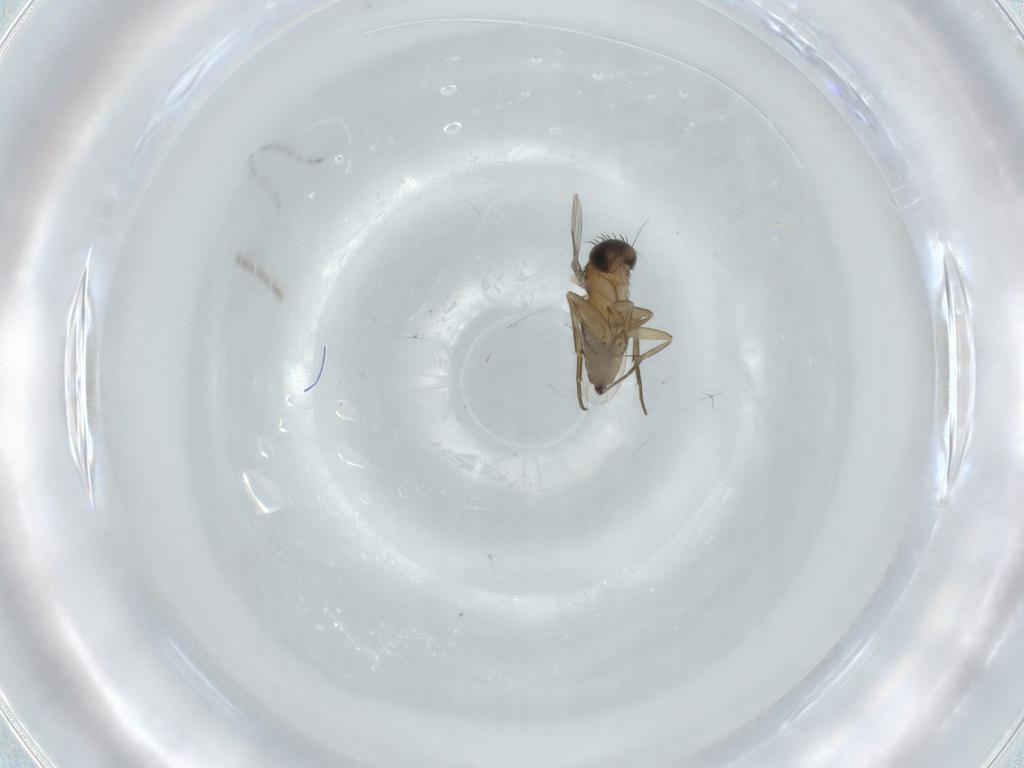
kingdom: Animalia
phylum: Arthropoda
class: Insecta
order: Diptera
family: Phoridae
